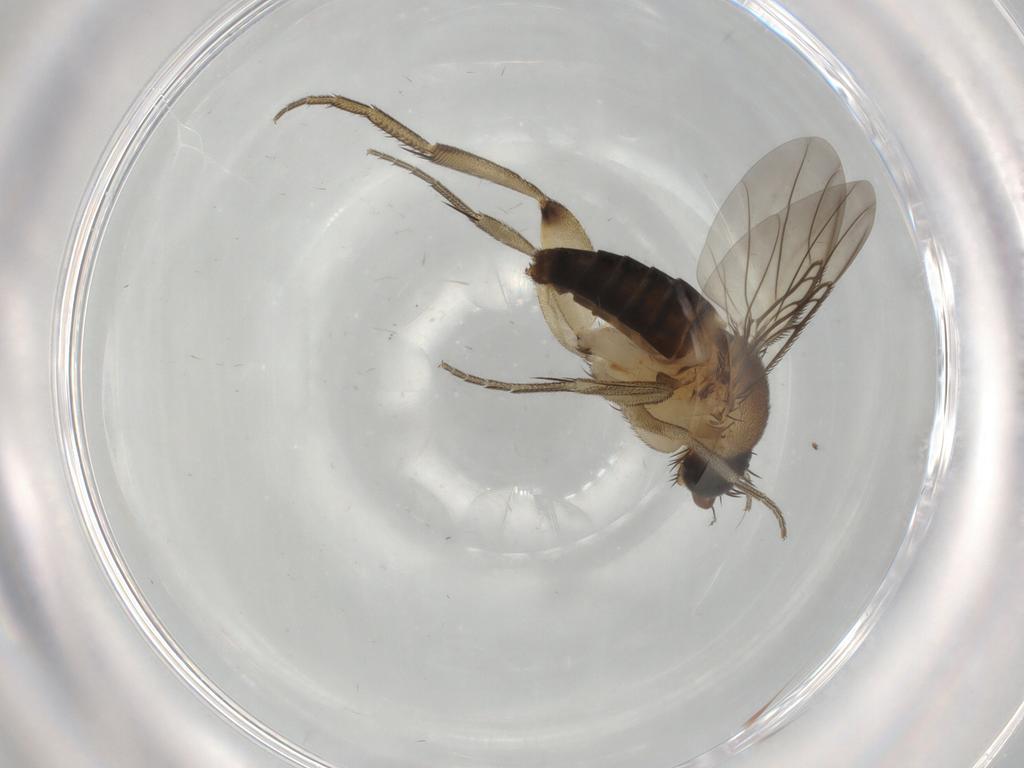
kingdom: Animalia
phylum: Arthropoda
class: Insecta
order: Diptera
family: Phoridae
